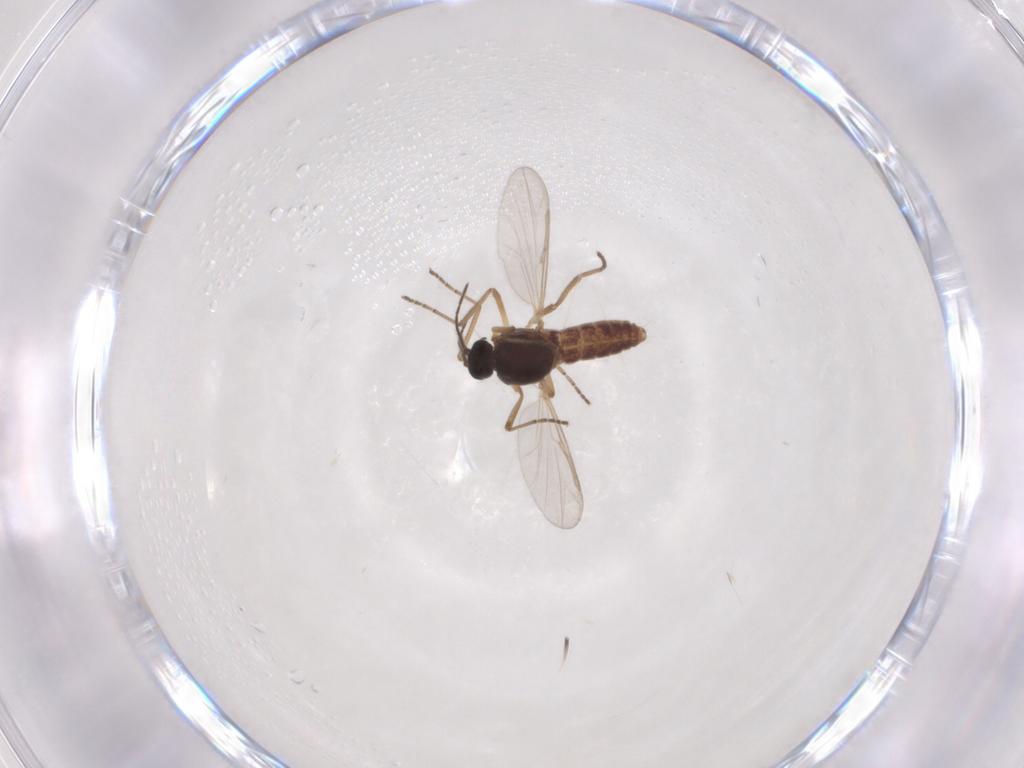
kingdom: Animalia
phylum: Arthropoda
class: Insecta
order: Diptera
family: Ceratopogonidae
